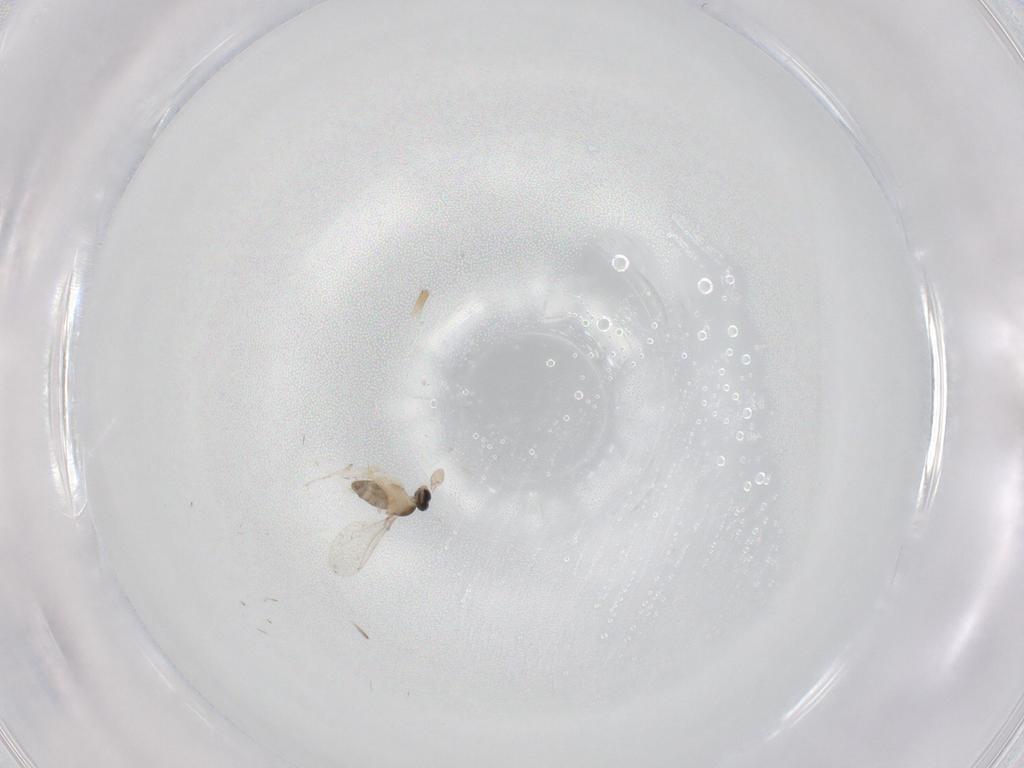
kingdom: Animalia
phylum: Arthropoda
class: Insecta
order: Diptera
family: Cecidomyiidae
